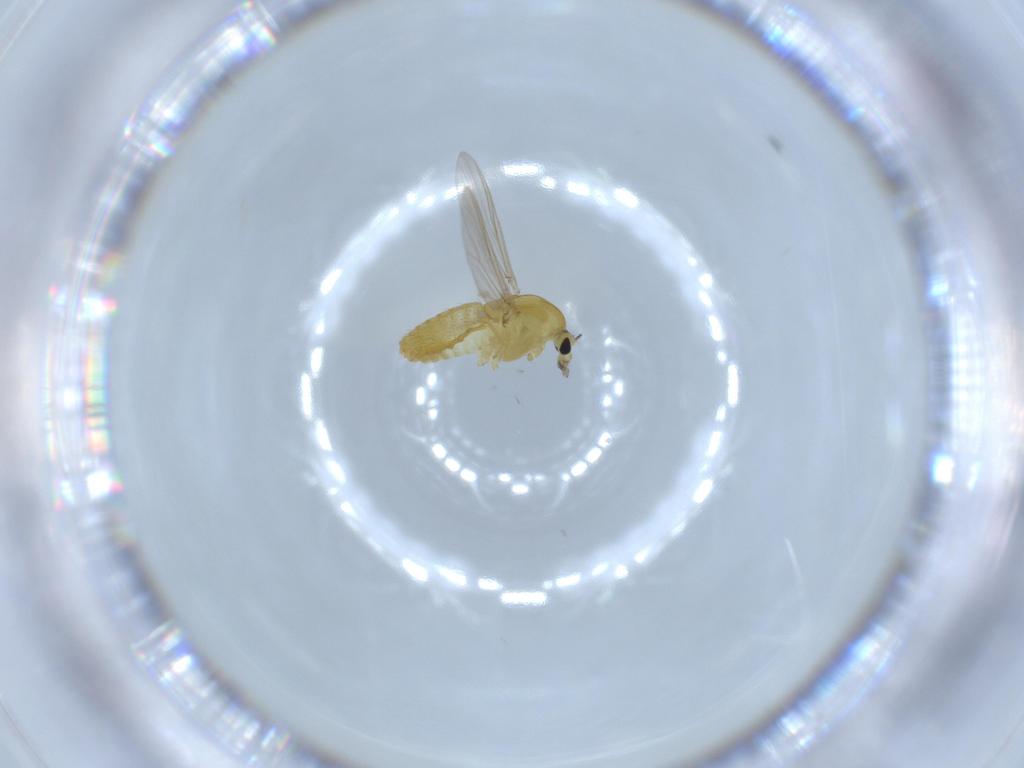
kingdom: Animalia
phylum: Arthropoda
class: Insecta
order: Diptera
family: Chironomidae
